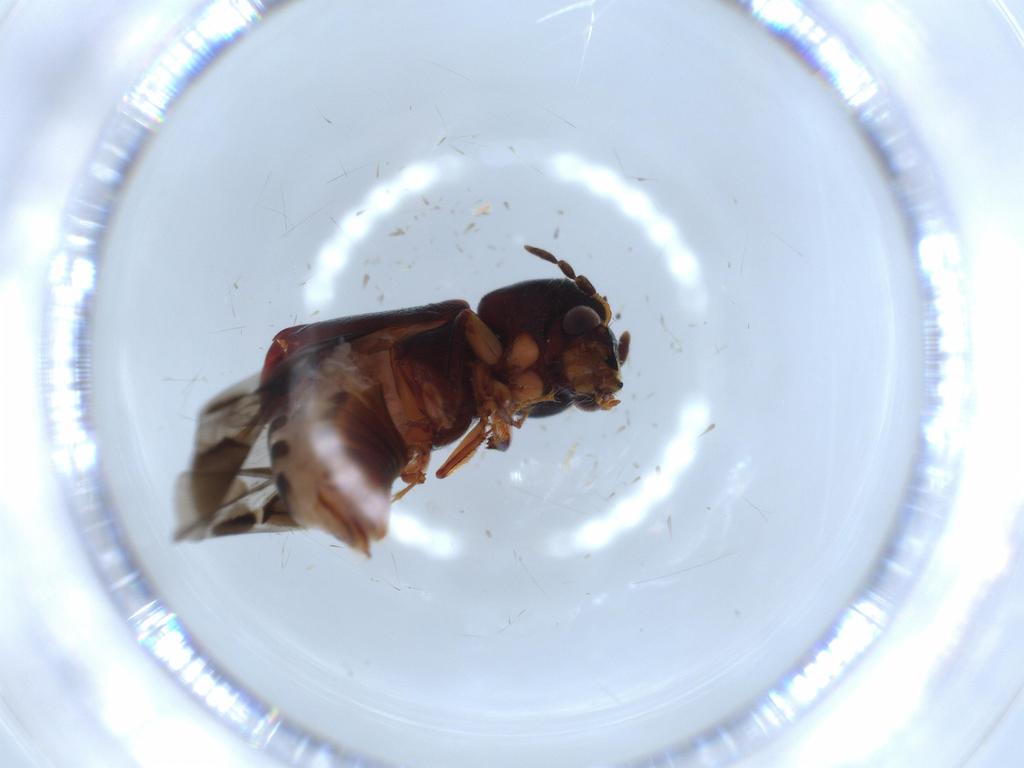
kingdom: Animalia
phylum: Arthropoda
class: Insecta
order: Coleoptera
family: Bostrichidae
